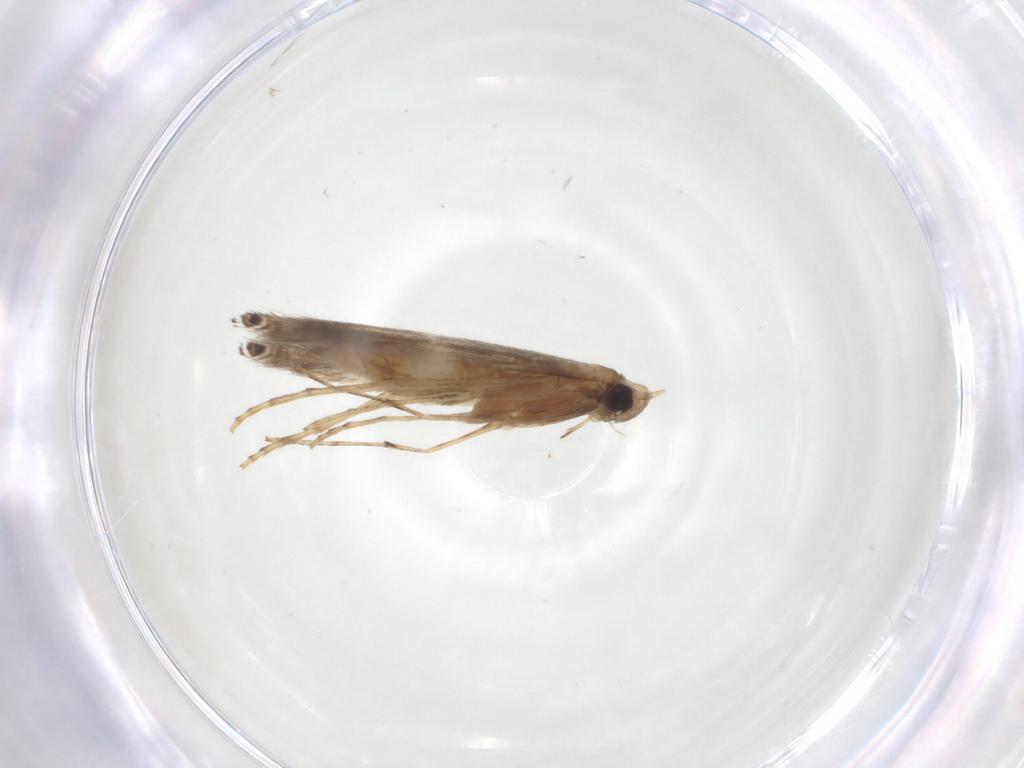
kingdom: Animalia
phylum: Arthropoda
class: Insecta
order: Lepidoptera
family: Gracillariidae
